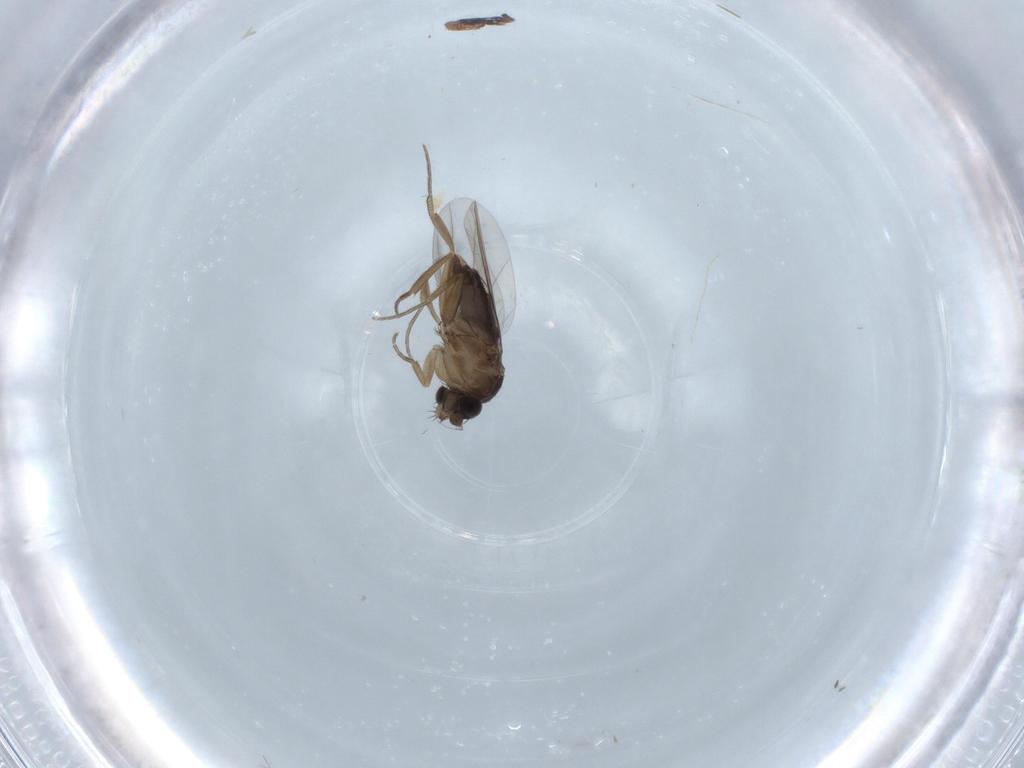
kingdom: Animalia
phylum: Arthropoda
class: Insecta
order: Diptera
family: Phoridae
